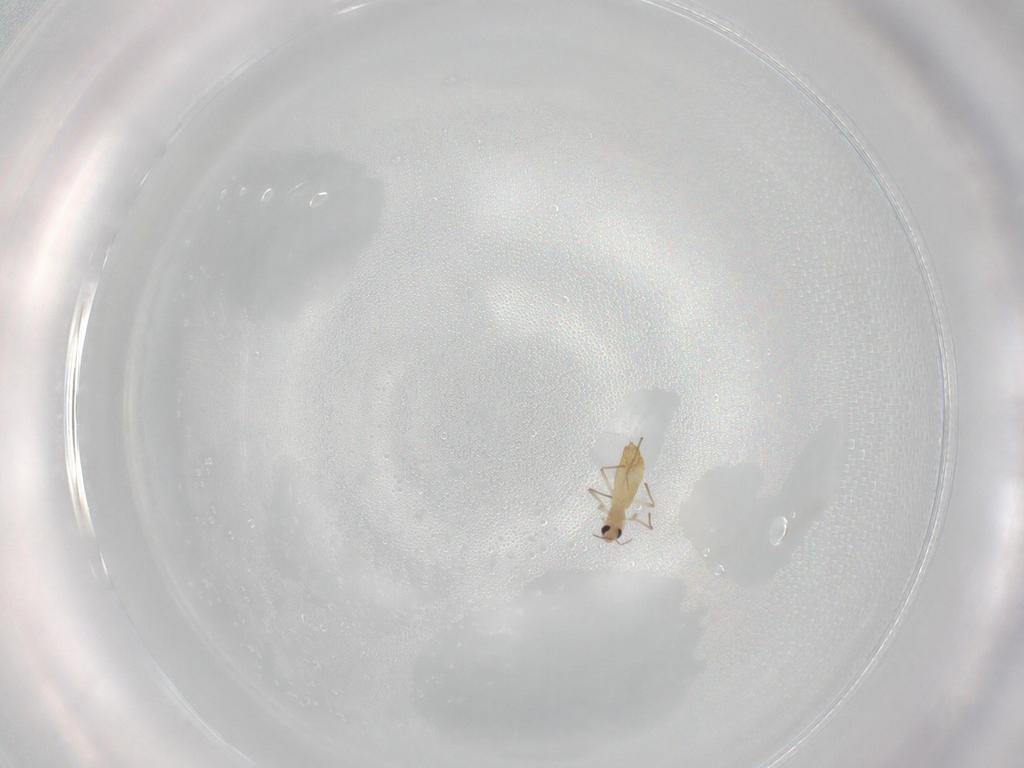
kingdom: Animalia
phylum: Arthropoda
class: Insecta
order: Diptera
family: Chironomidae
